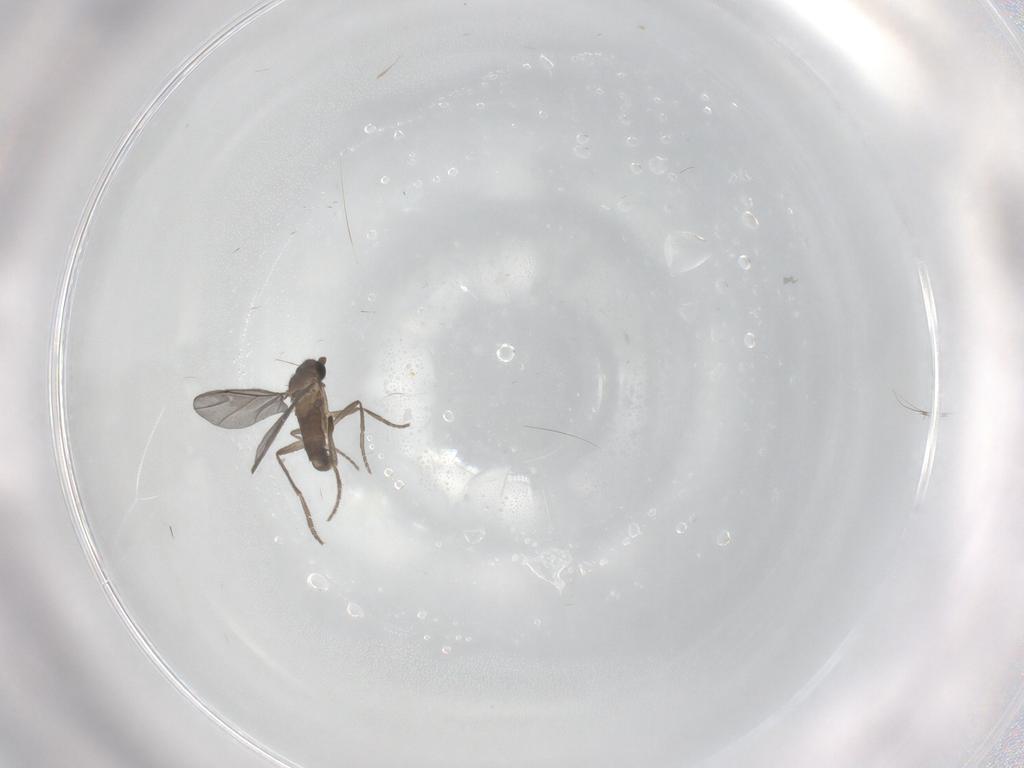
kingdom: Animalia
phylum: Arthropoda
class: Insecta
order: Diptera
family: Phoridae
